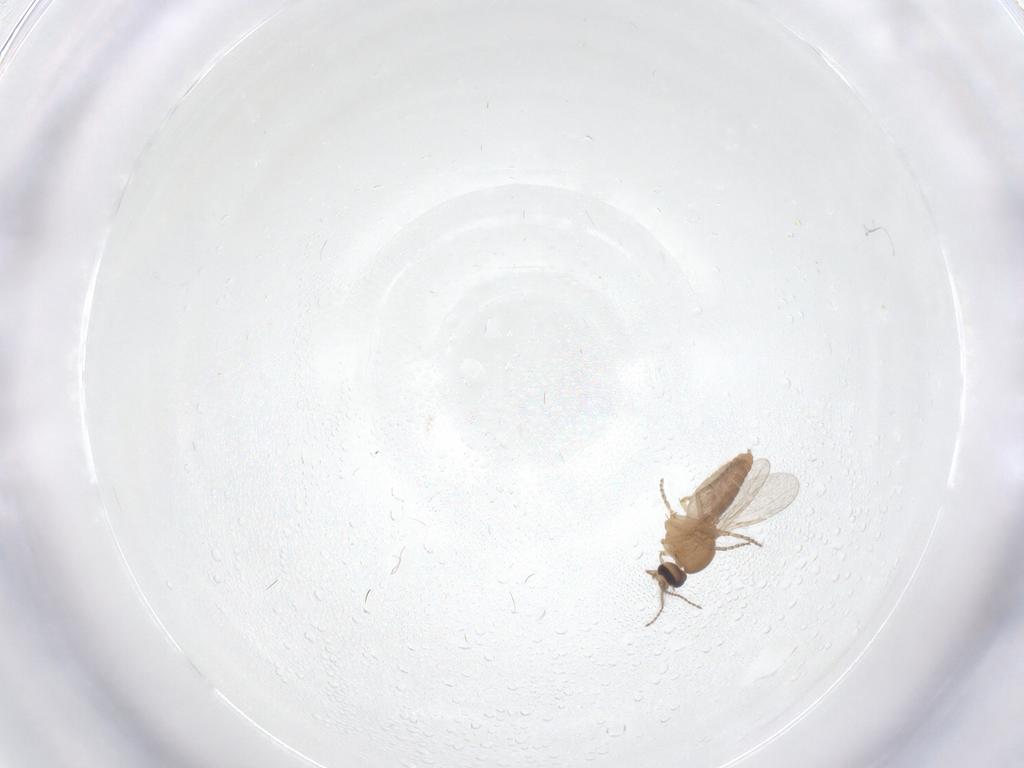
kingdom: Animalia
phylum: Arthropoda
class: Insecta
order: Diptera
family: Ceratopogonidae
